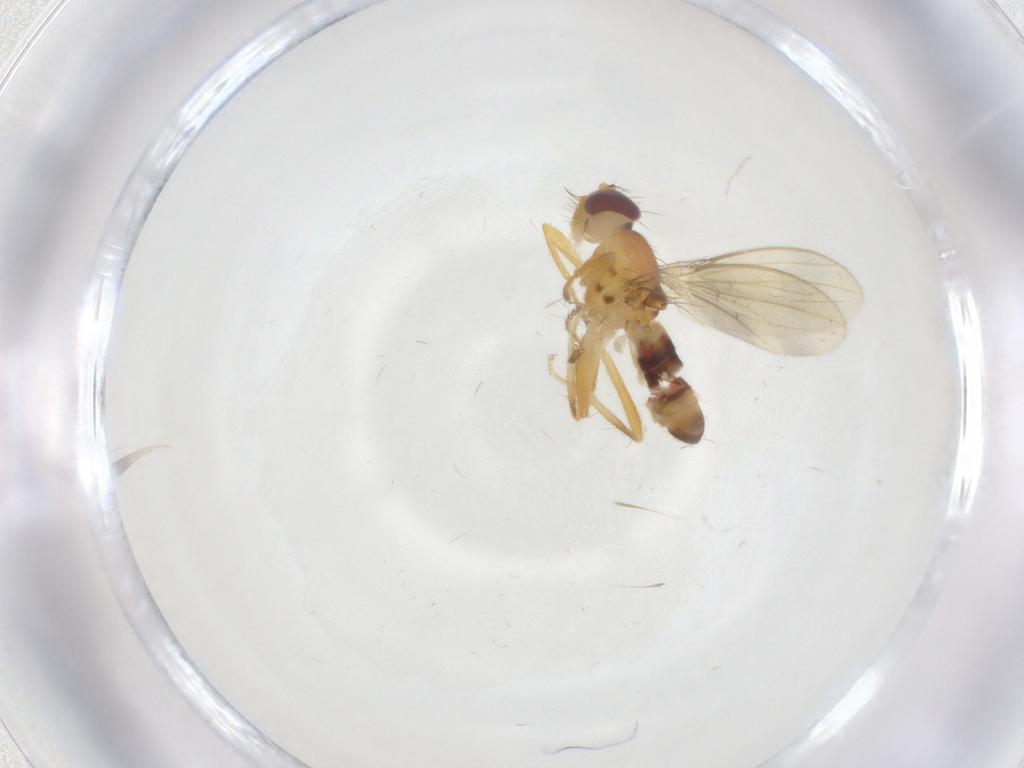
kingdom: Animalia
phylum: Arthropoda
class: Insecta
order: Diptera
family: Periscelididae
